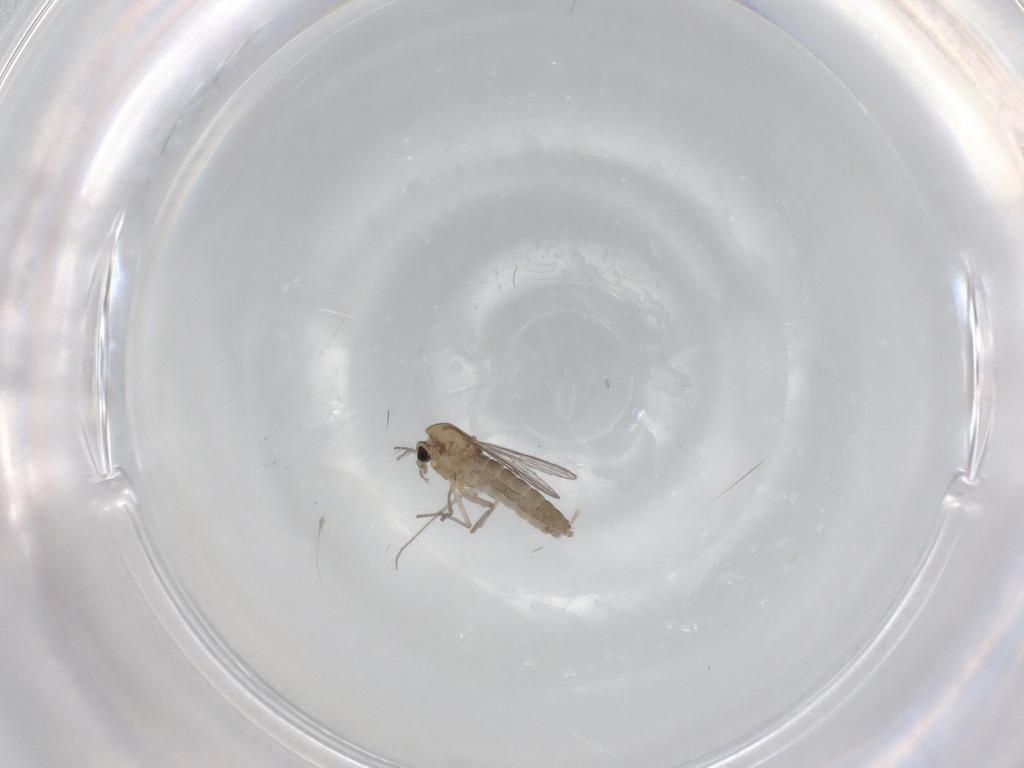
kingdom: Animalia
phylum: Arthropoda
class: Insecta
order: Diptera
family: Chironomidae
